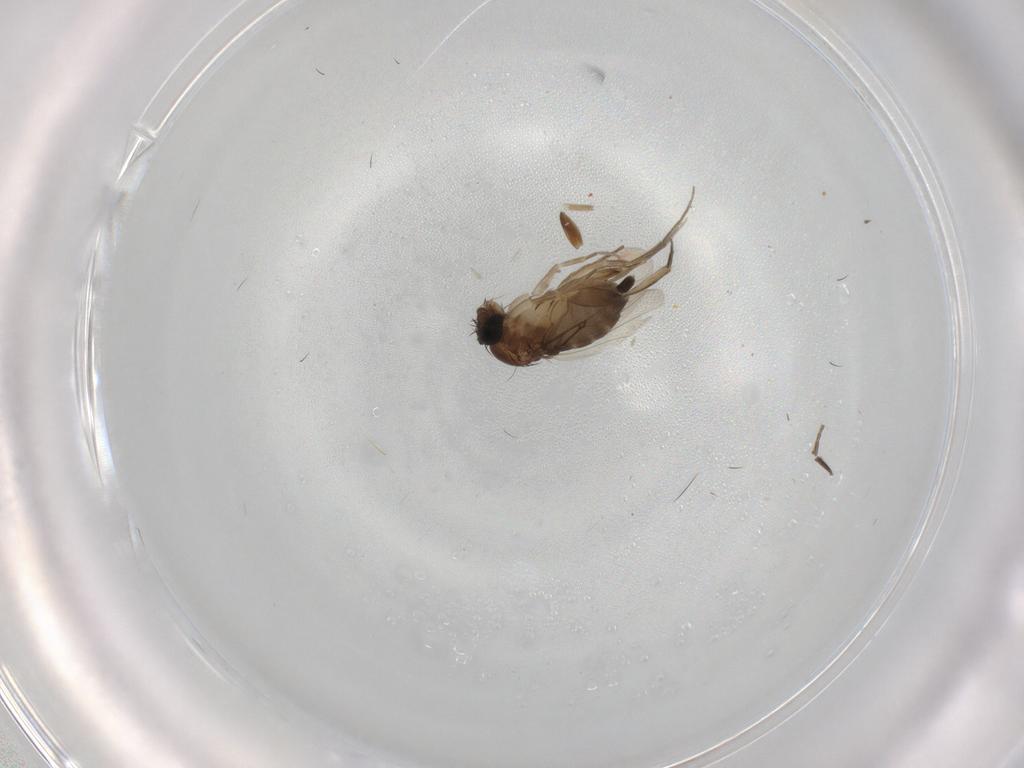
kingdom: Animalia
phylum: Arthropoda
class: Insecta
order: Diptera
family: Phoridae
